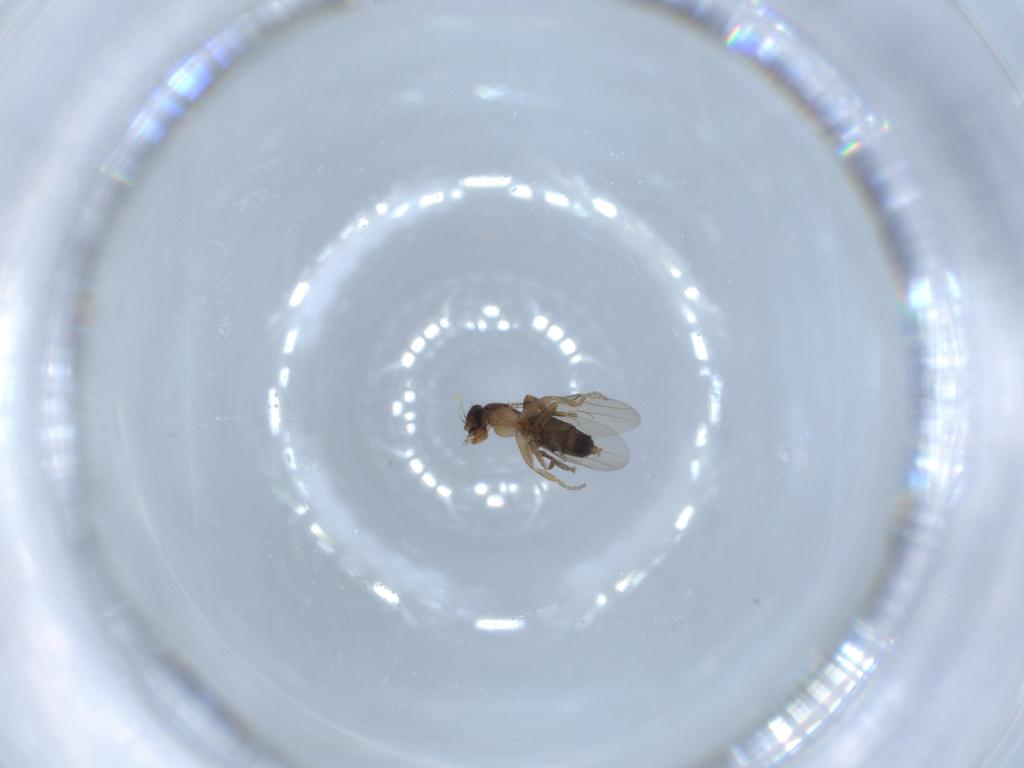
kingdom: Animalia
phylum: Arthropoda
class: Insecta
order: Diptera
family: Phoridae
